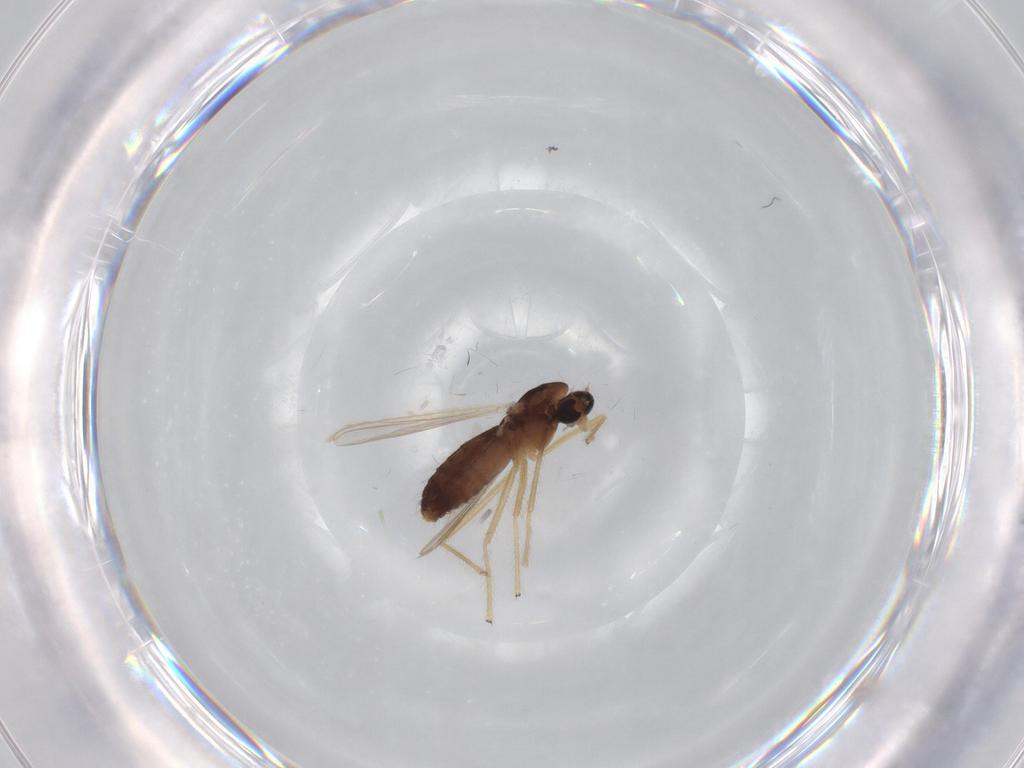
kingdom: Animalia
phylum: Arthropoda
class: Insecta
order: Diptera
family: Chironomidae
